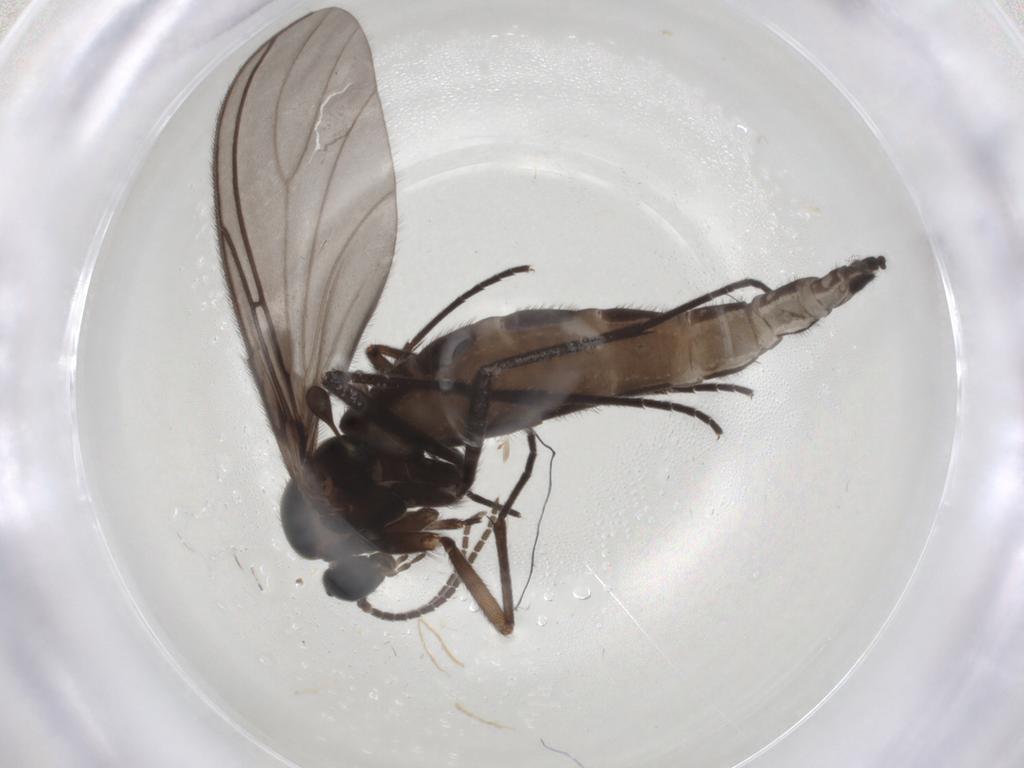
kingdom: Animalia
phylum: Arthropoda
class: Insecta
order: Diptera
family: Sciaridae
